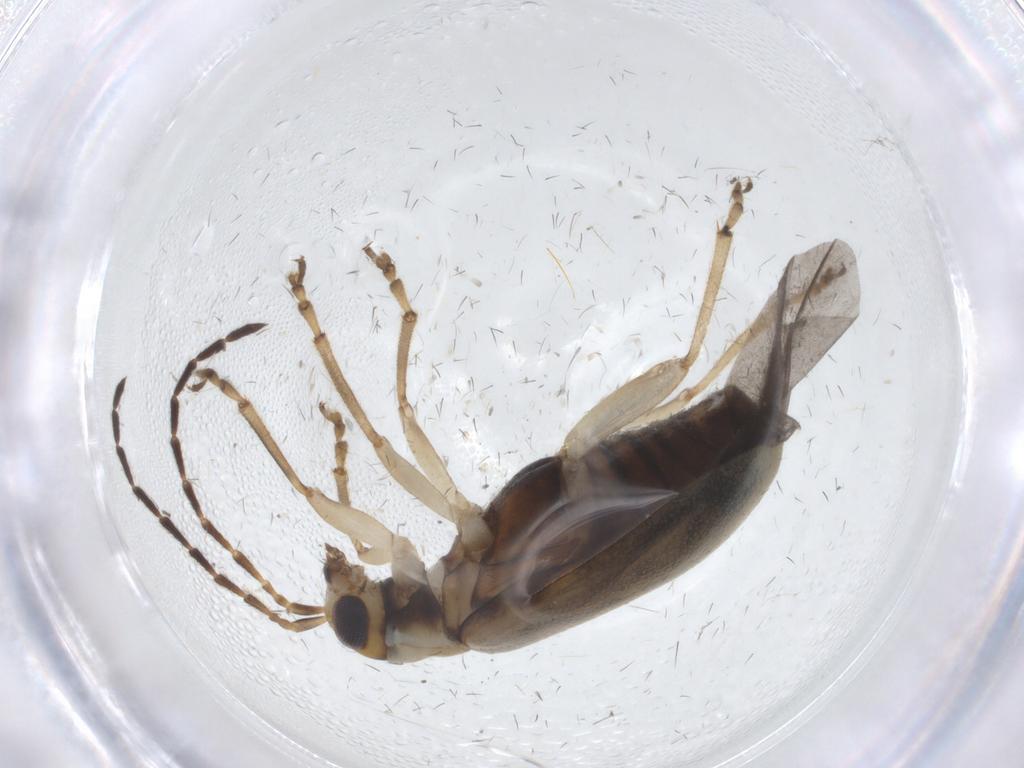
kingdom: Animalia
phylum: Arthropoda
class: Insecta
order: Coleoptera
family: Chrysomelidae
